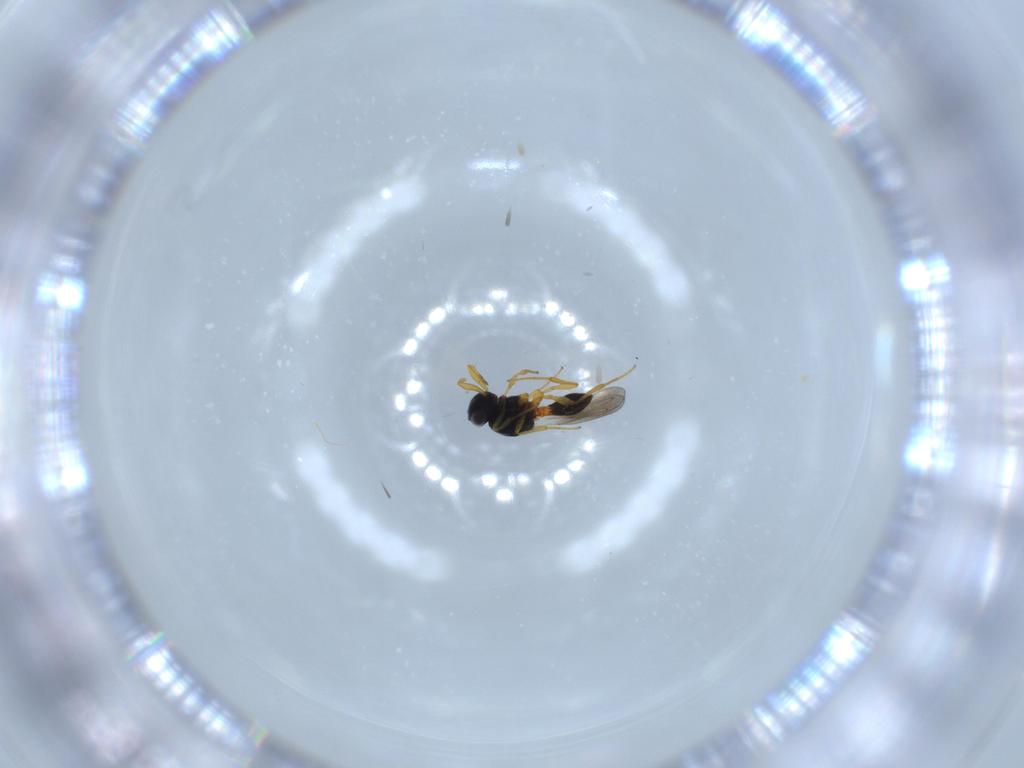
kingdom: Animalia
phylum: Arthropoda
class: Insecta
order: Hymenoptera
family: Platygastridae
